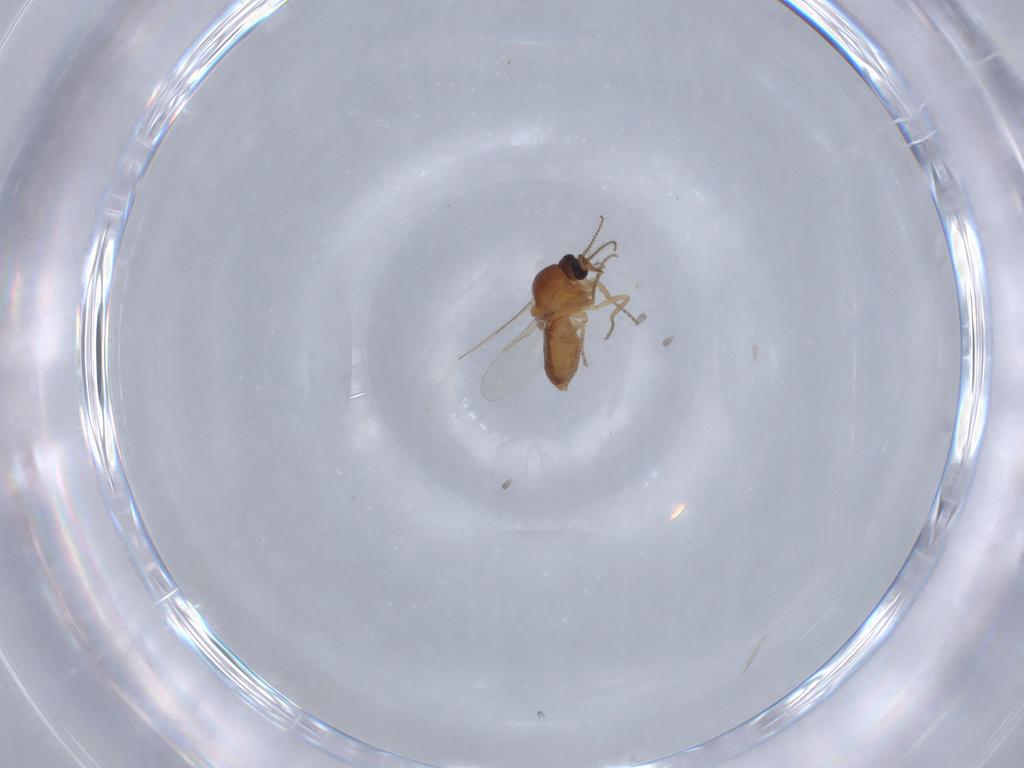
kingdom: Animalia
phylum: Arthropoda
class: Insecta
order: Diptera
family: Ceratopogonidae
